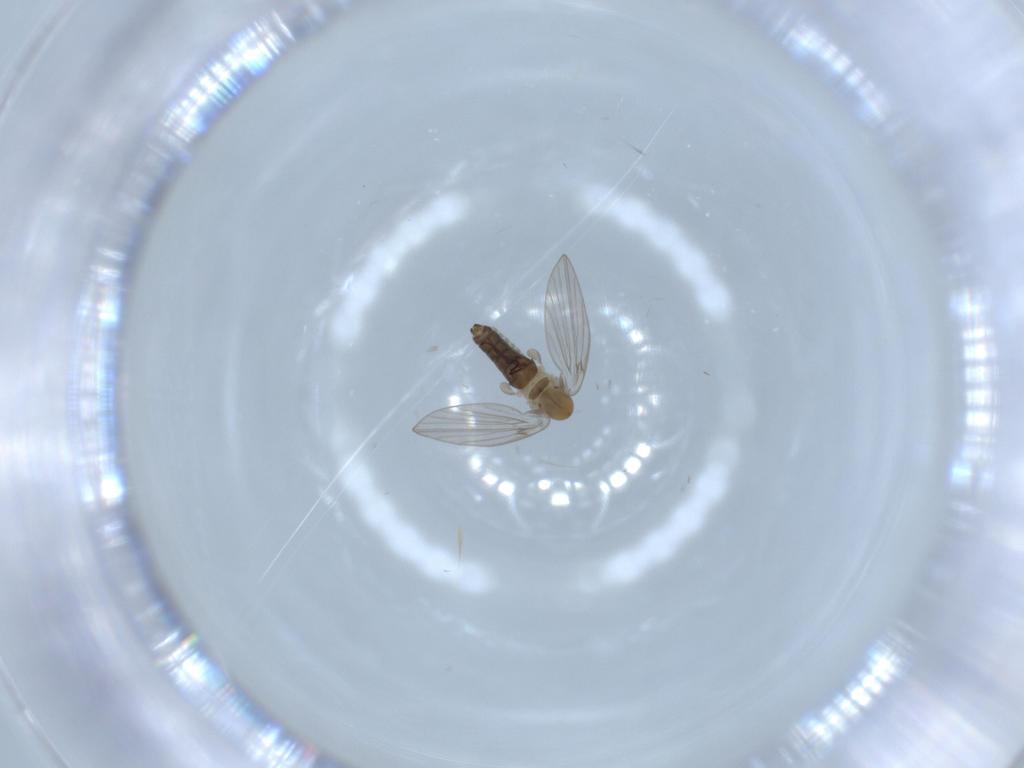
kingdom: Animalia
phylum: Arthropoda
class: Insecta
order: Diptera
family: Psychodidae
